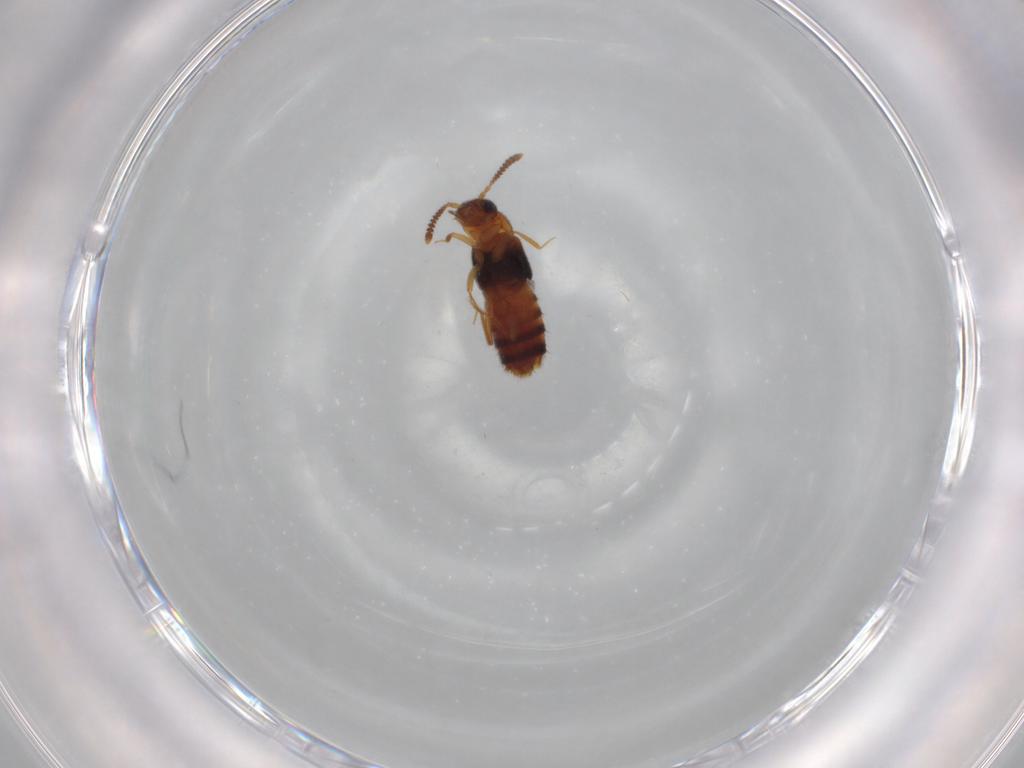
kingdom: Animalia
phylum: Arthropoda
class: Insecta
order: Coleoptera
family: Staphylinidae
